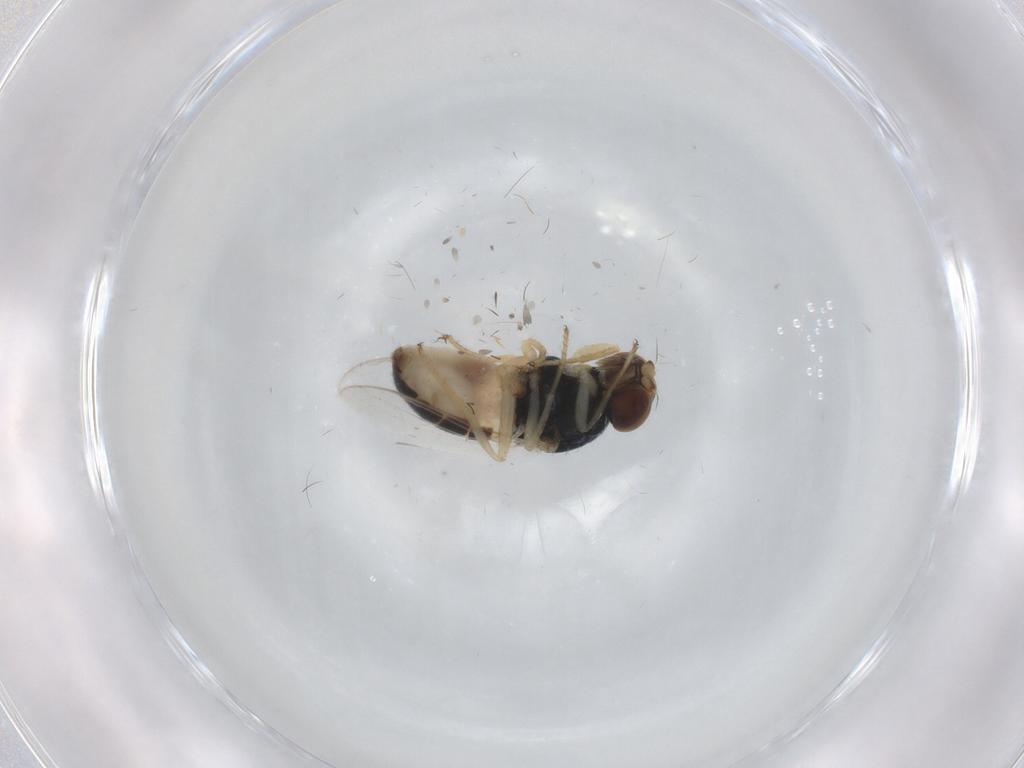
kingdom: Animalia
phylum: Arthropoda
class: Insecta
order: Diptera
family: Chloropidae
